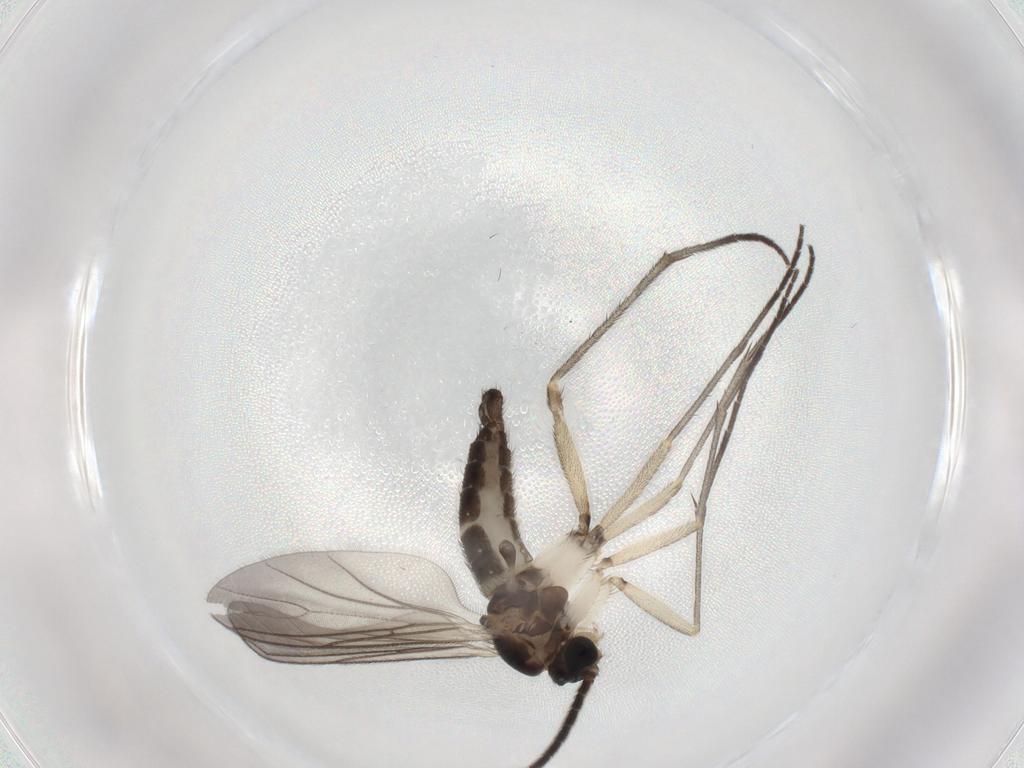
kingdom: Animalia
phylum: Arthropoda
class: Insecta
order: Diptera
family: Sciaridae
